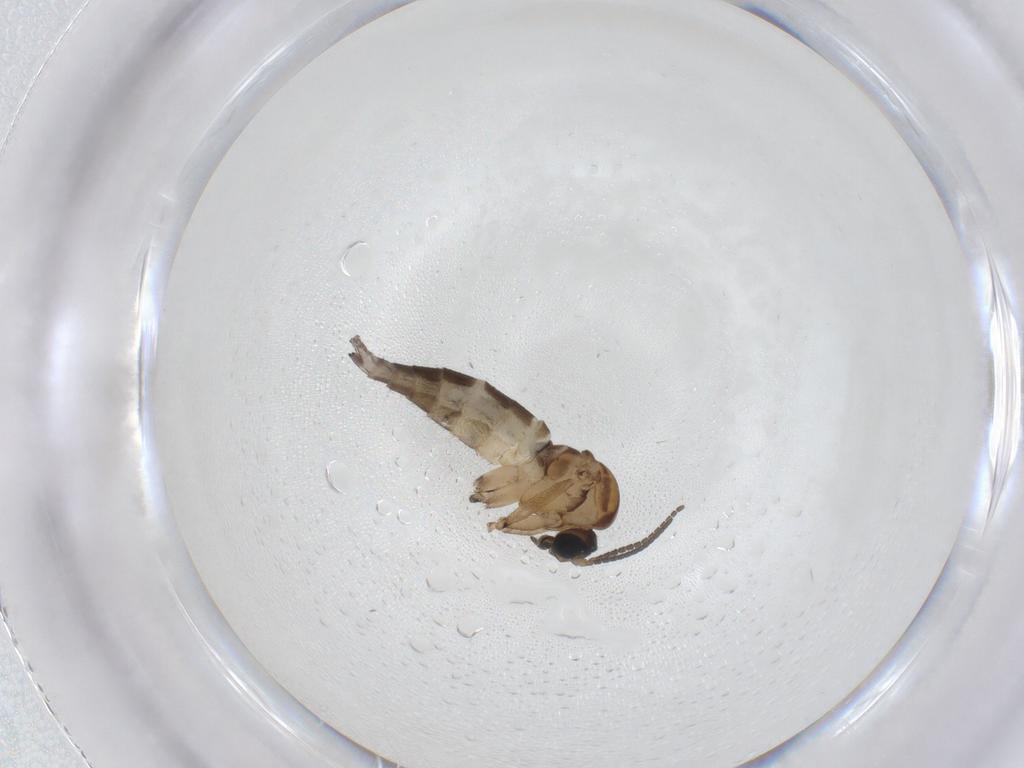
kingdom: Animalia
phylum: Arthropoda
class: Insecta
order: Diptera
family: Sciaridae
